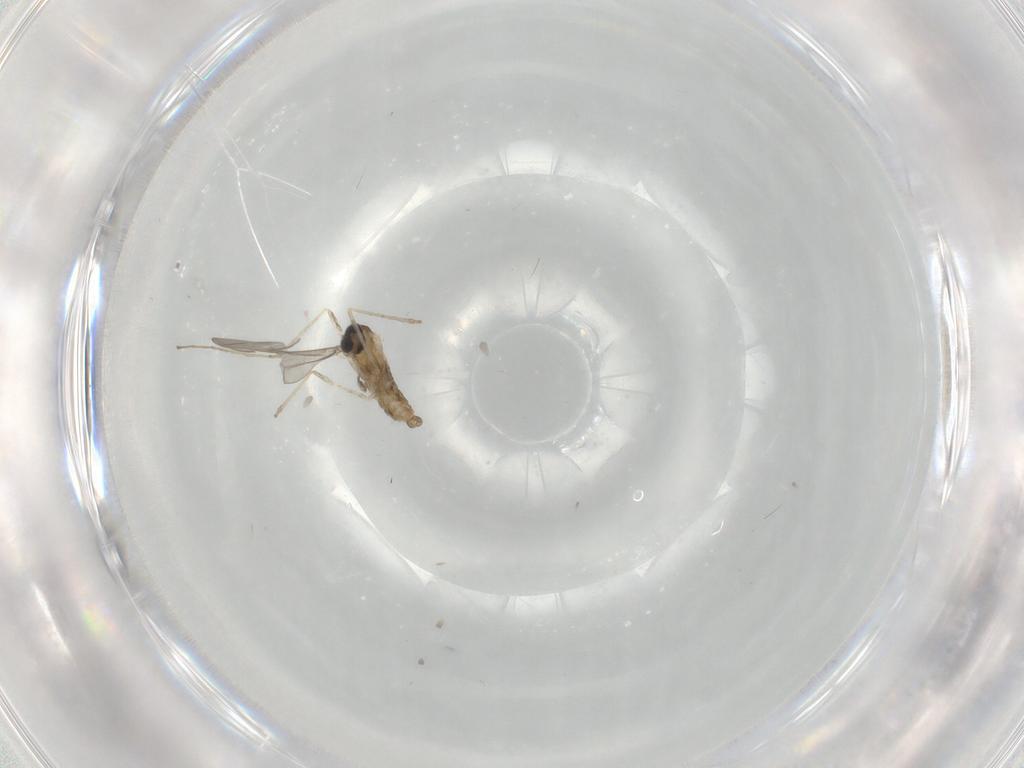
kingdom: Animalia
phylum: Arthropoda
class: Insecta
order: Diptera
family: Cecidomyiidae
